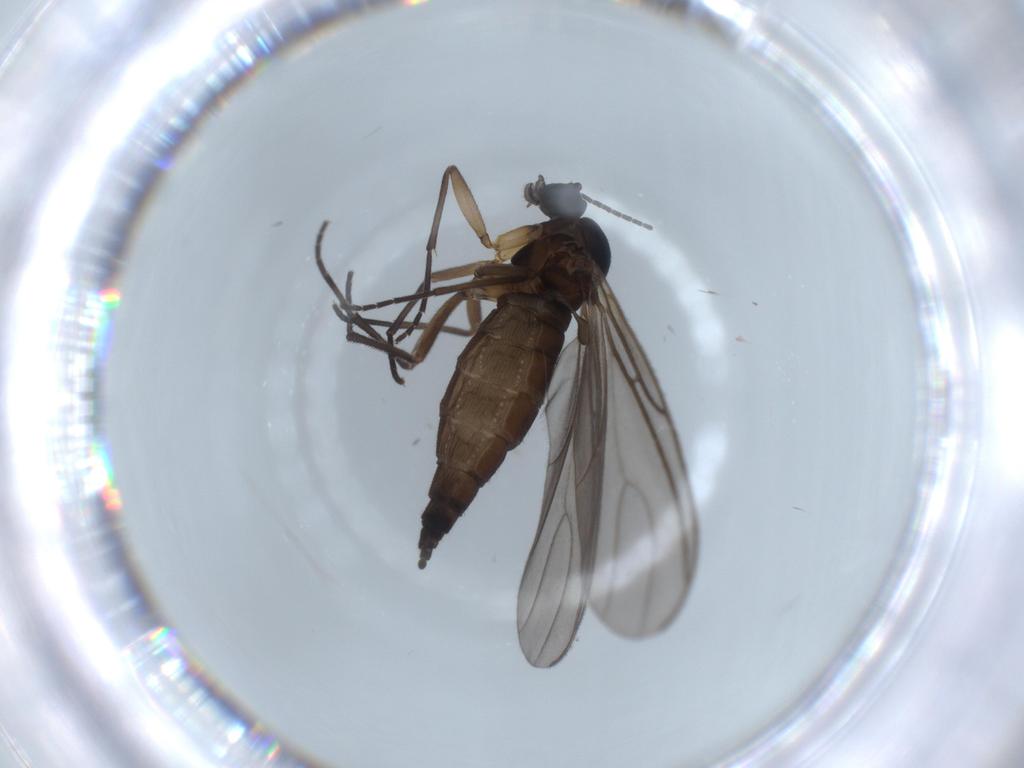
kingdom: Animalia
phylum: Arthropoda
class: Insecta
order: Diptera
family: Sciaridae
